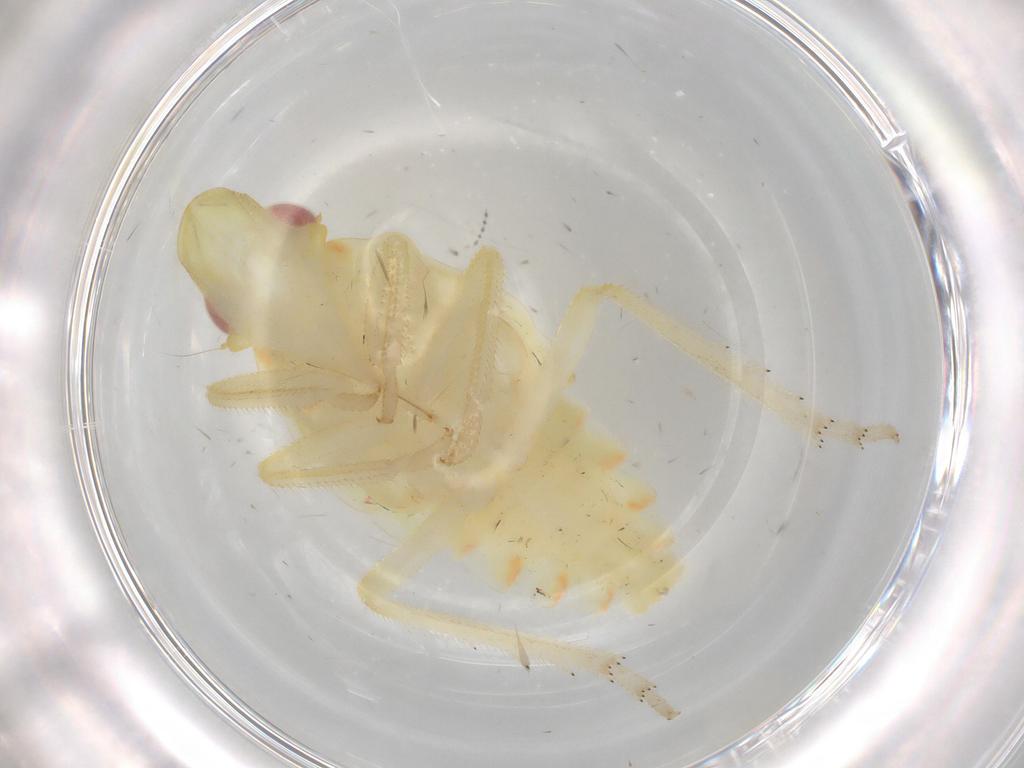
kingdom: Animalia
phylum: Arthropoda
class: Insecta
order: Hemiptera
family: Tropiduchidae
